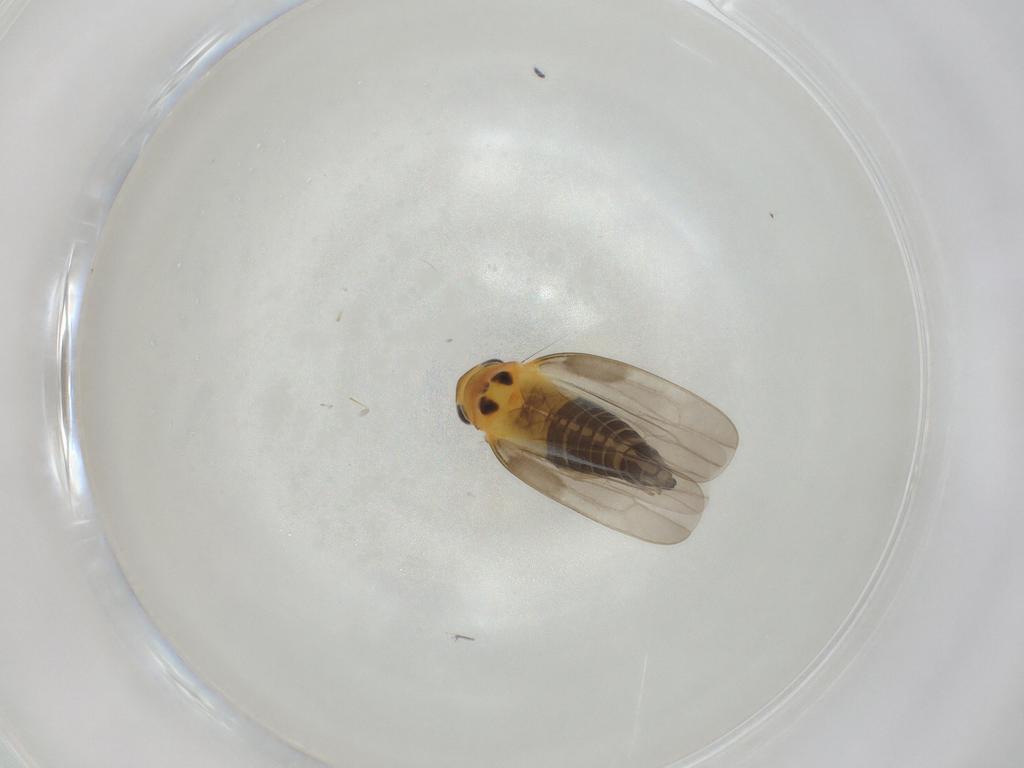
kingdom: Animalia
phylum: Arthropoda
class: Insecta
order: Hemiptera
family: Cicadellidae
